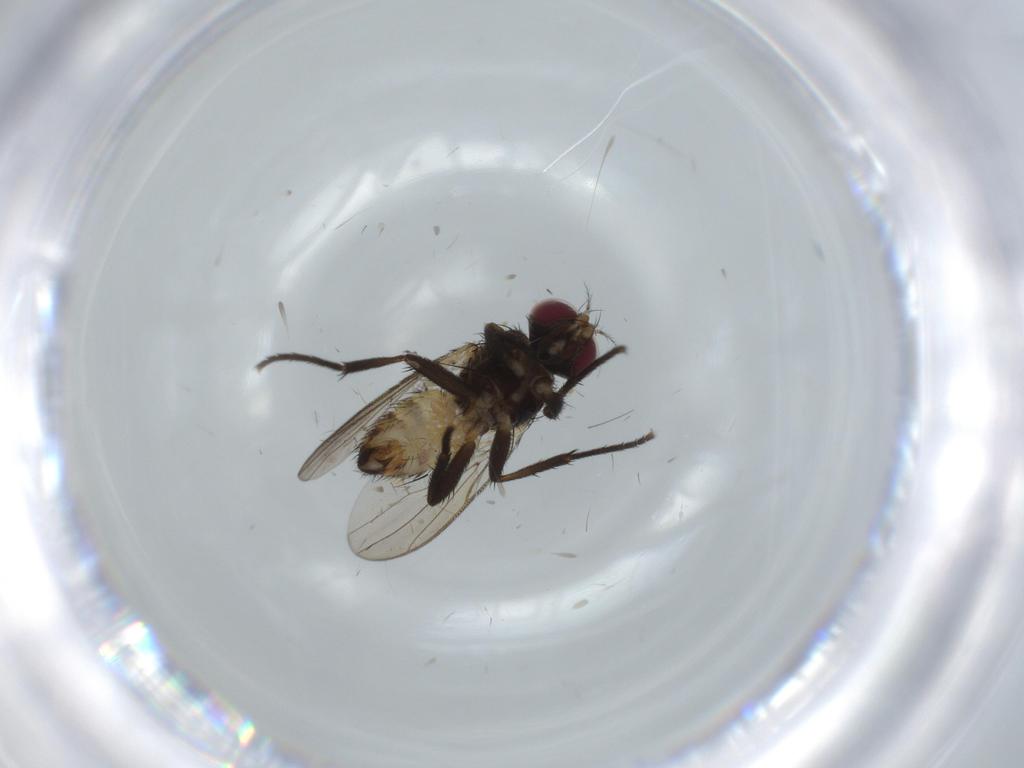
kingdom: Animalia
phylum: Arthropoda
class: Insecta
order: Diptera
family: Anthomyiidae
